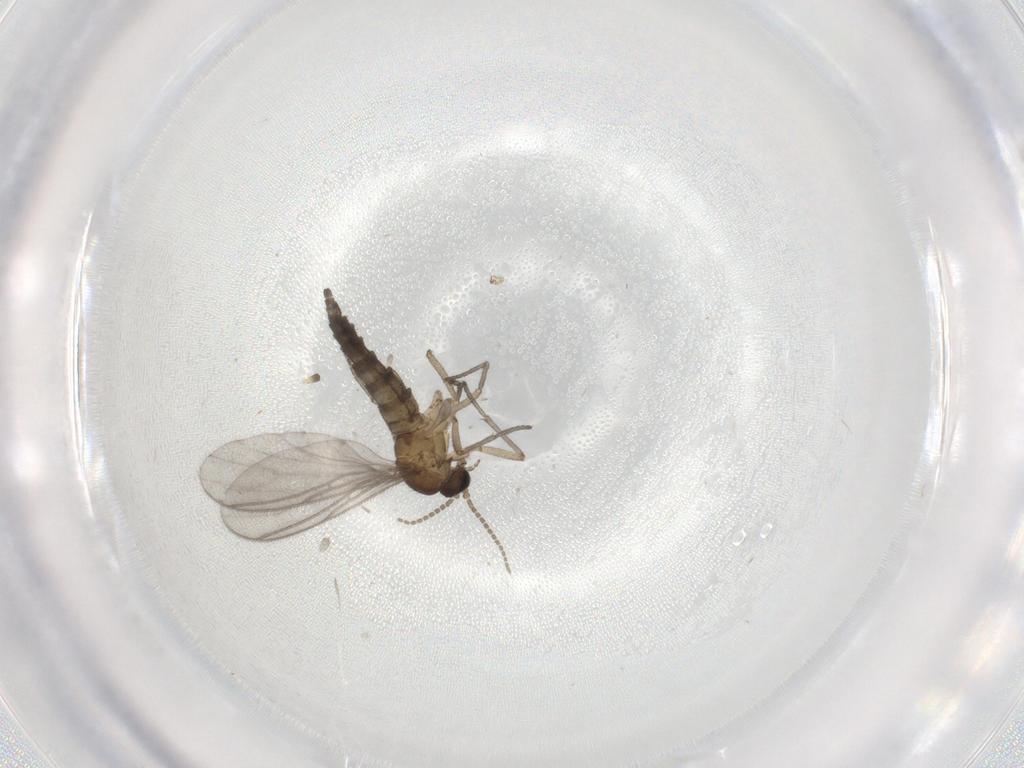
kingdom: Animalia
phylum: Arthropoda
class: Insecta
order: Diptera
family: Sciaridae
